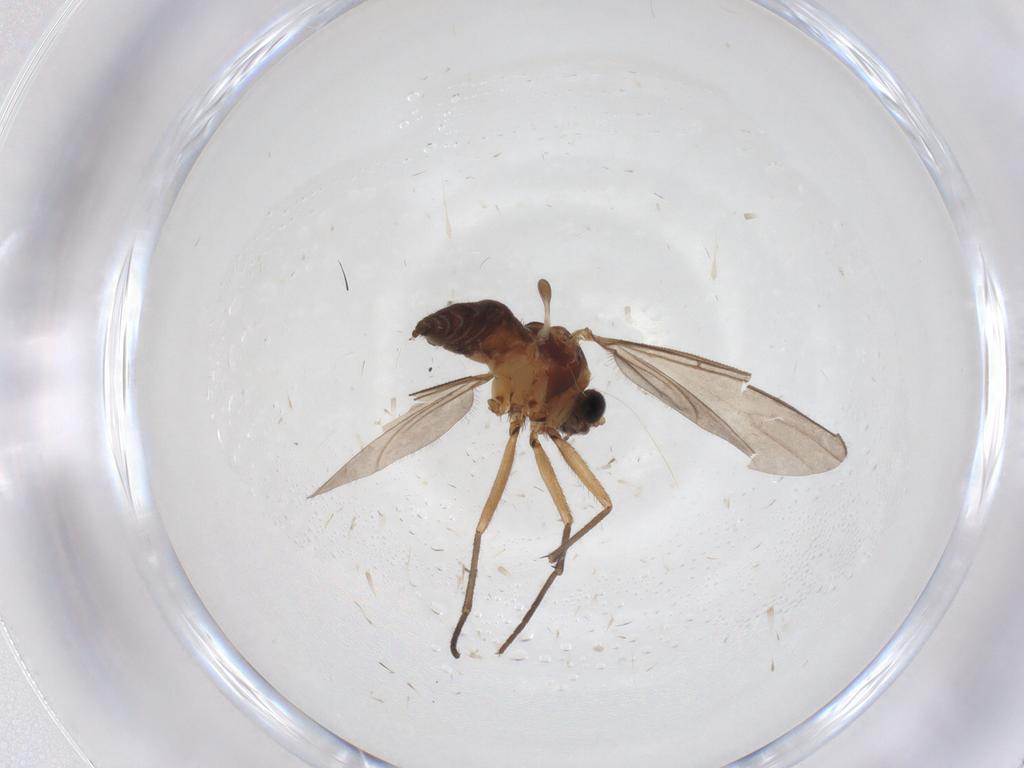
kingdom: Animalia
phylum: Arthropoda
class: Insecta
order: Diptera
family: Sciaridae
